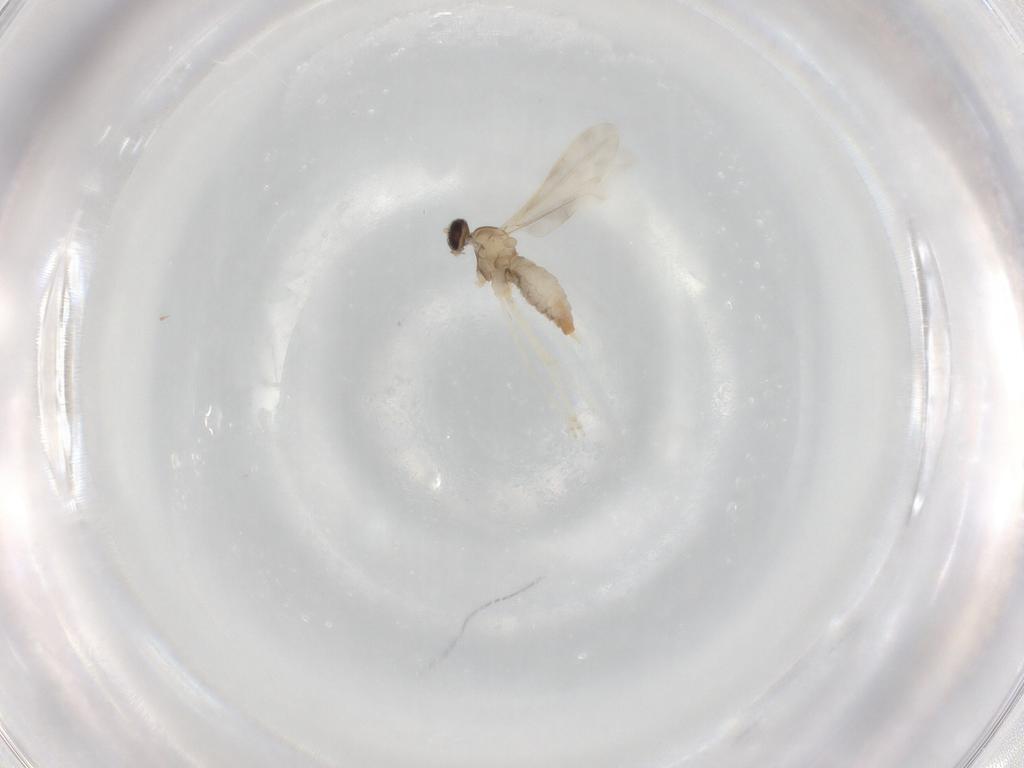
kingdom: Animalia
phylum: Arthropoda
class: Insecta
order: Diptera
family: Cecidomyiidae
